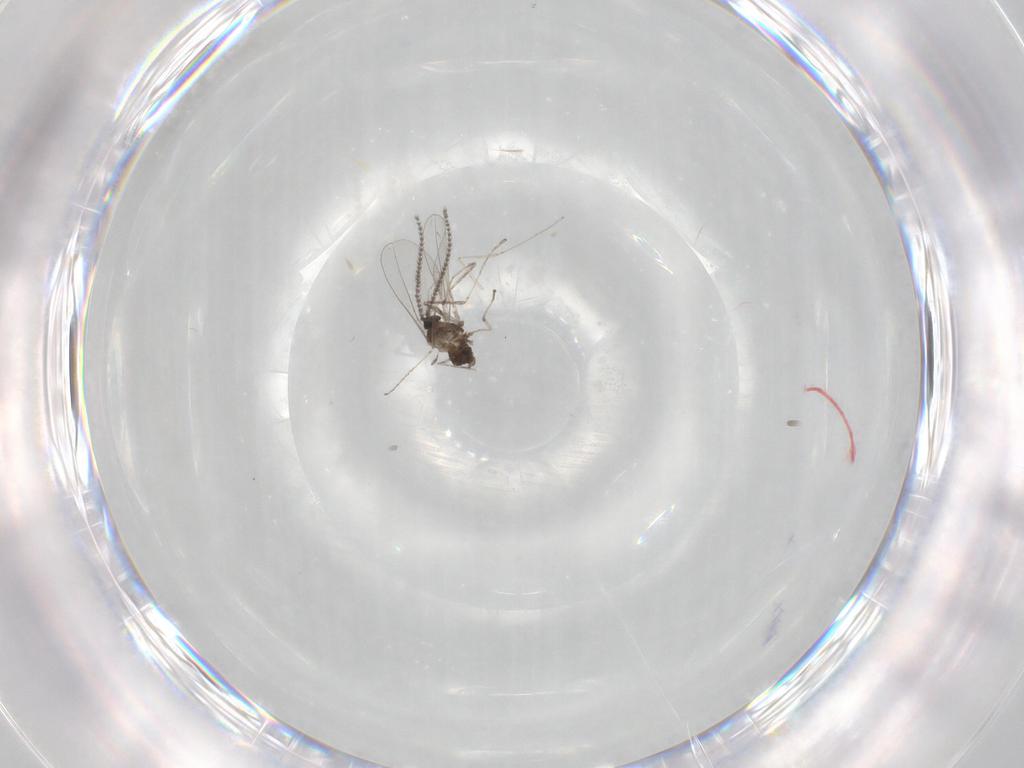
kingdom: Animalia
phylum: Arthropoda
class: Insecta
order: Diptera
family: Cecidomyiidae
